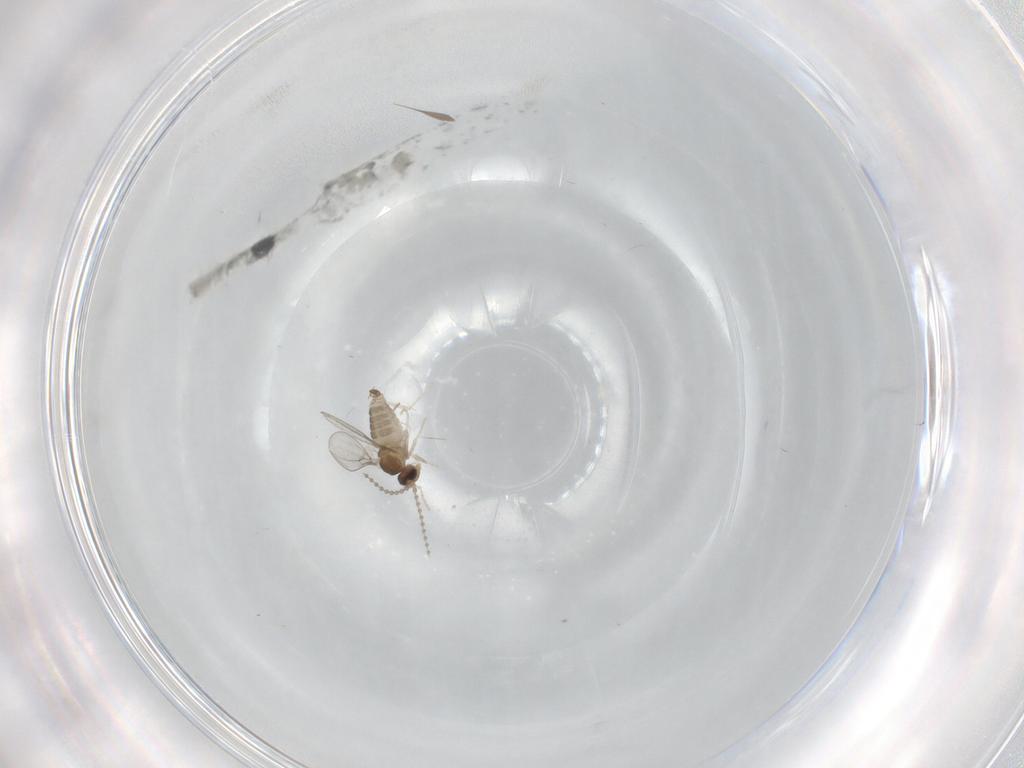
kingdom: Animalia
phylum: Arthropoda
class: Insecta
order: Diptera
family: Cecidomyiidae
